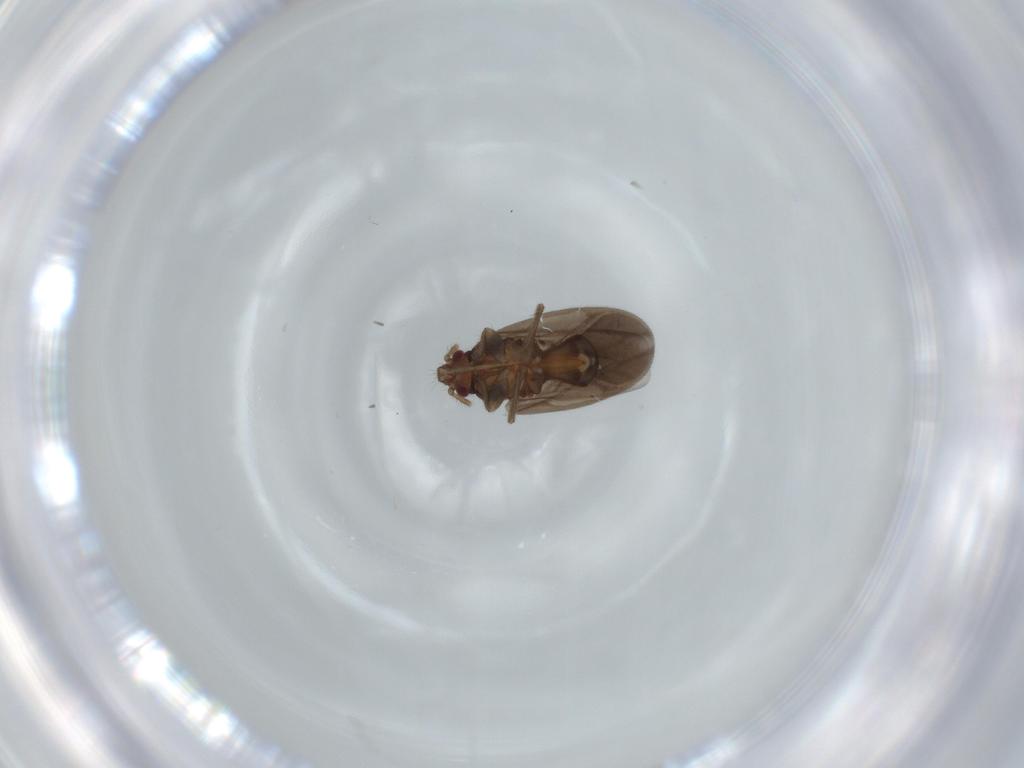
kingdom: Animalia
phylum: Arthropoda
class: Insecta
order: Hemiptera
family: Ceratocombidae
